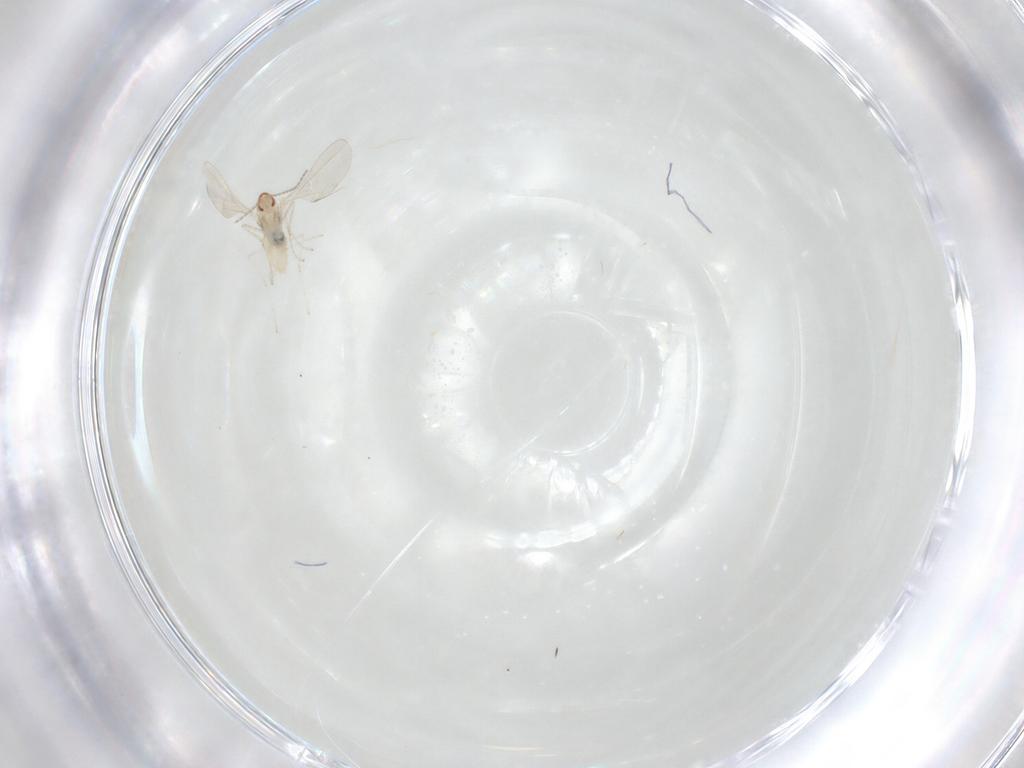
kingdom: Animalia
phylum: Arthropoda
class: Insecta
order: Diptera
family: Cecidomyiidae
